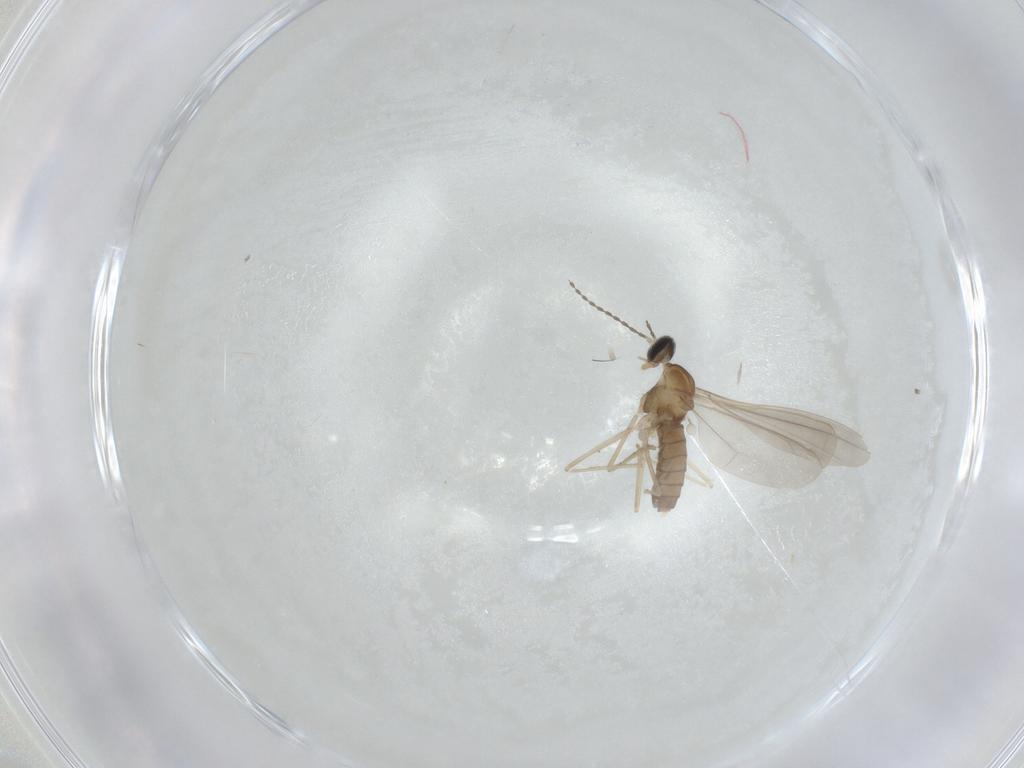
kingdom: Animalia
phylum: Arthropoda
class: Insecta
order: Diptera
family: Cecidomyiidae
